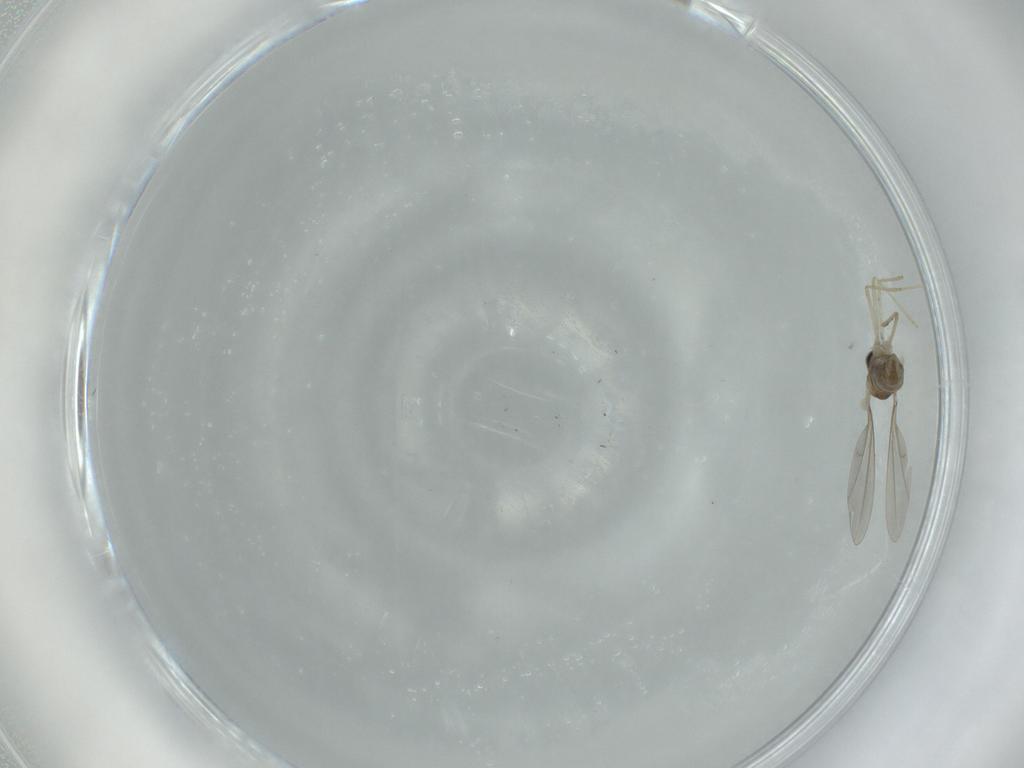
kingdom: Animalia
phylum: Arthropoda
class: Insecta
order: Diptera
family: Cecidomyiidae
